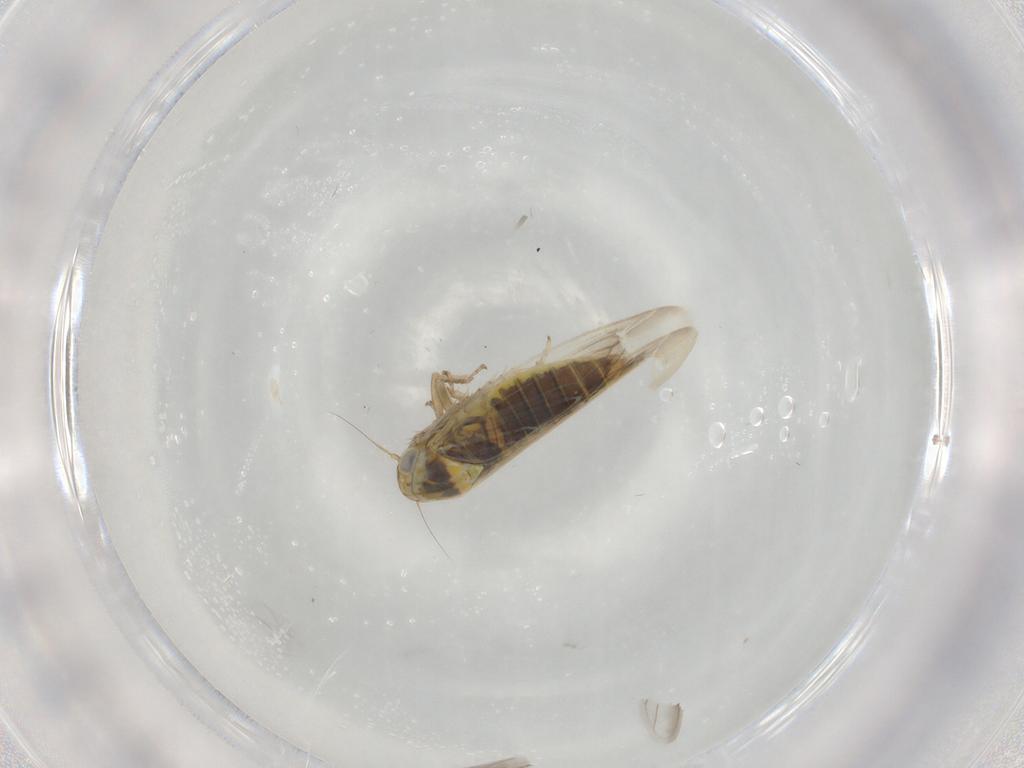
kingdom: Animalia
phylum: Arthropoda
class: Insecta
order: Hemiptera
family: Cicadellidae
